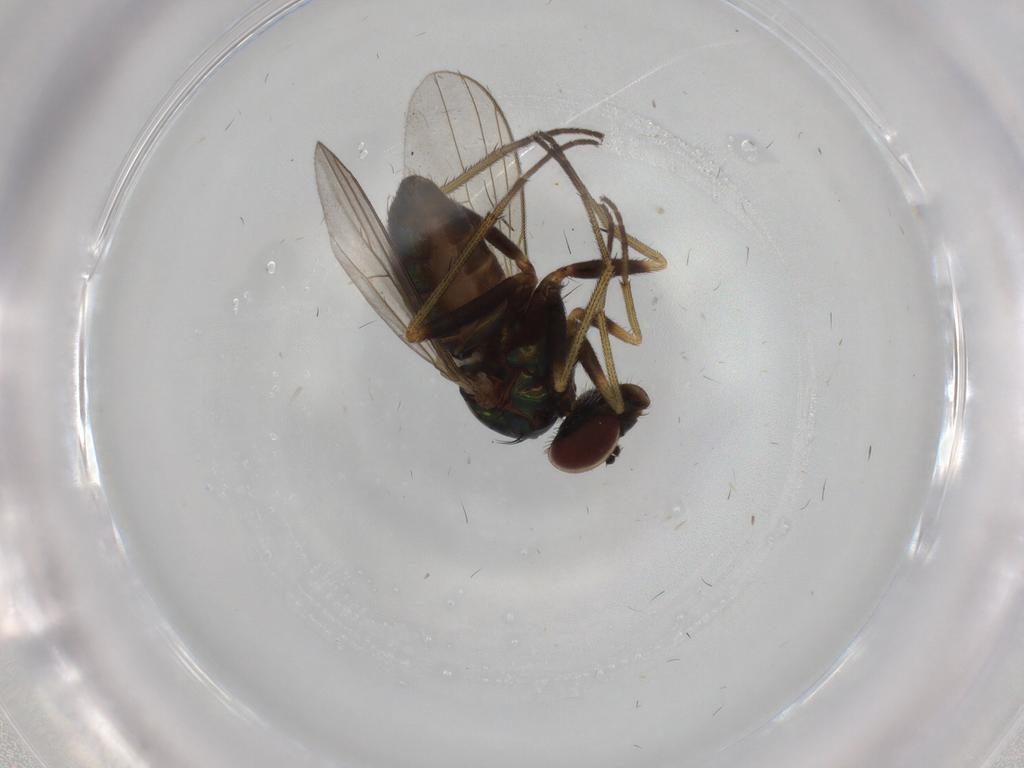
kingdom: Animalia
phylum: Arthropoda
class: Insecta
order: Diptera
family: Dolichopodidae
